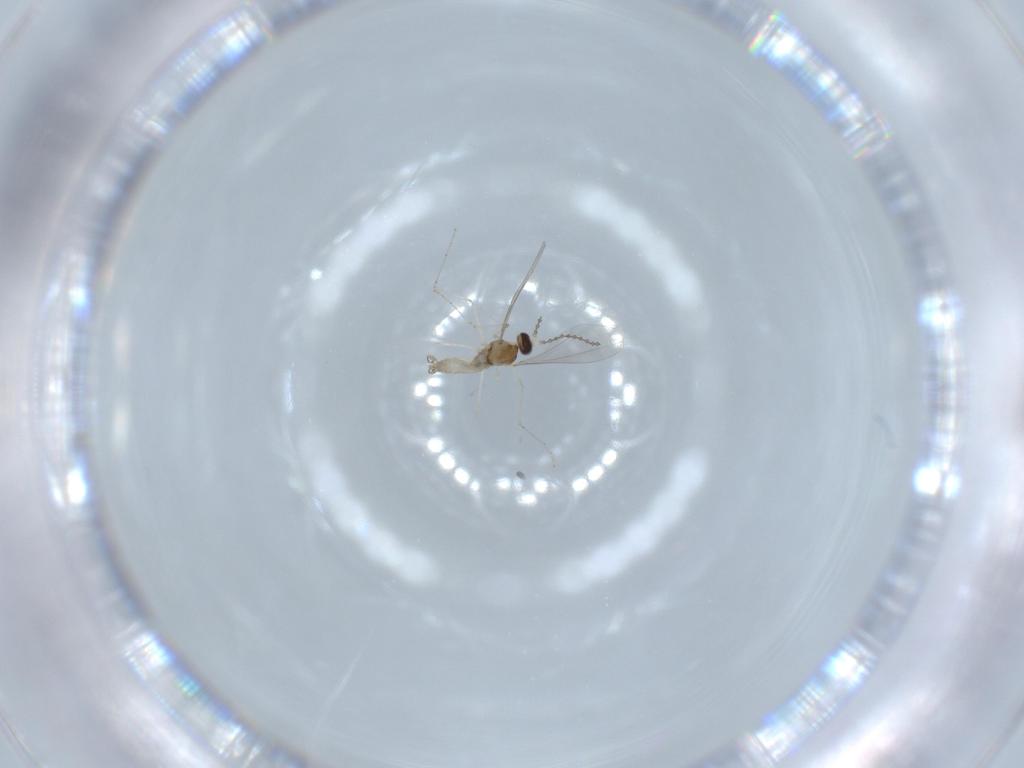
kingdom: Animalia
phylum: Arthropoda
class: Insecta
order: Diptera
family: Cecidomyiidae
